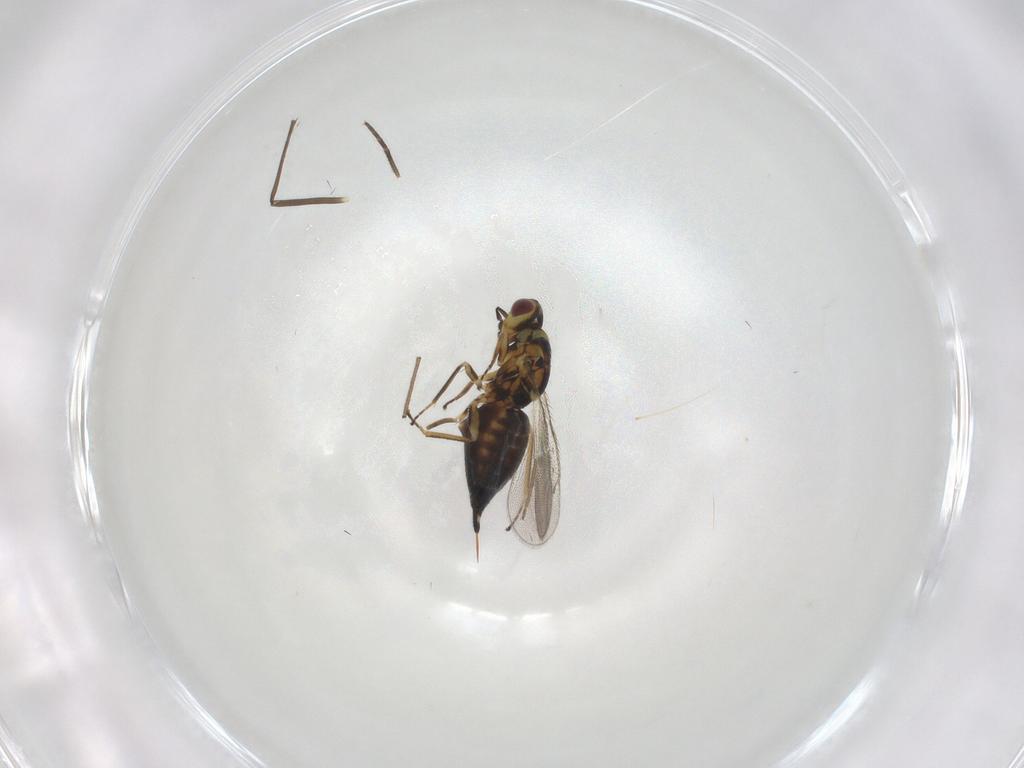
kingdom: Animalia
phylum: Arthropoda
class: Insecta
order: Hymenoptera
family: Eulophidae
